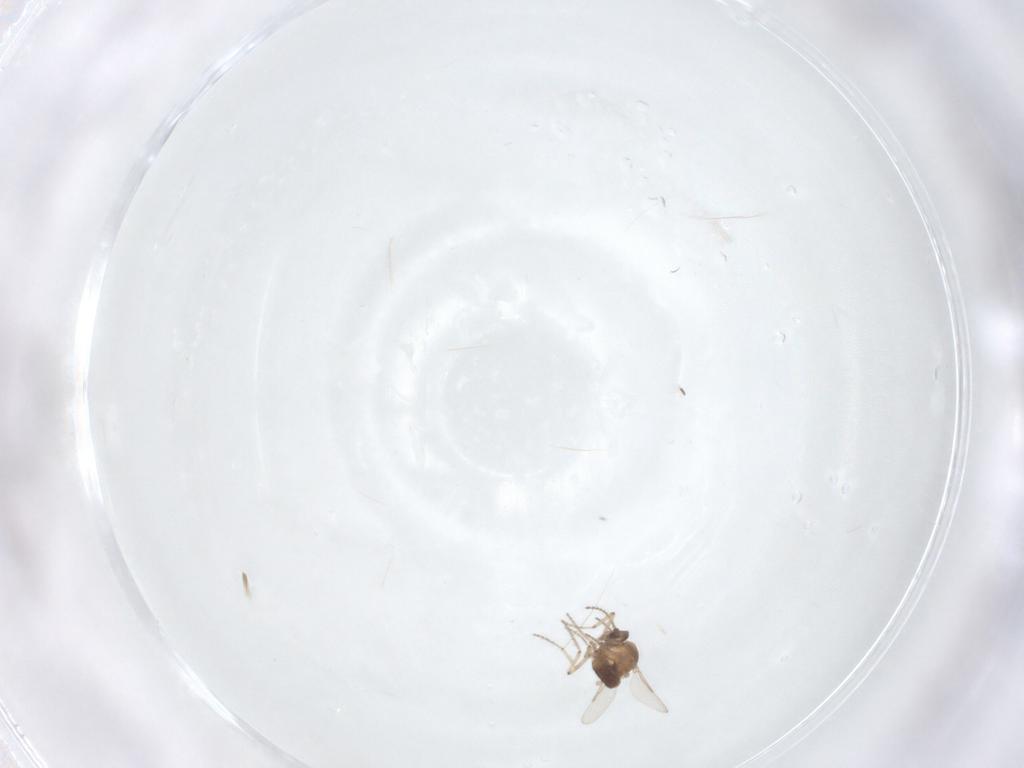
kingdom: Animalia
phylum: Arthropoda
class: Insecta
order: Diptera
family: Ceratopogonidae
